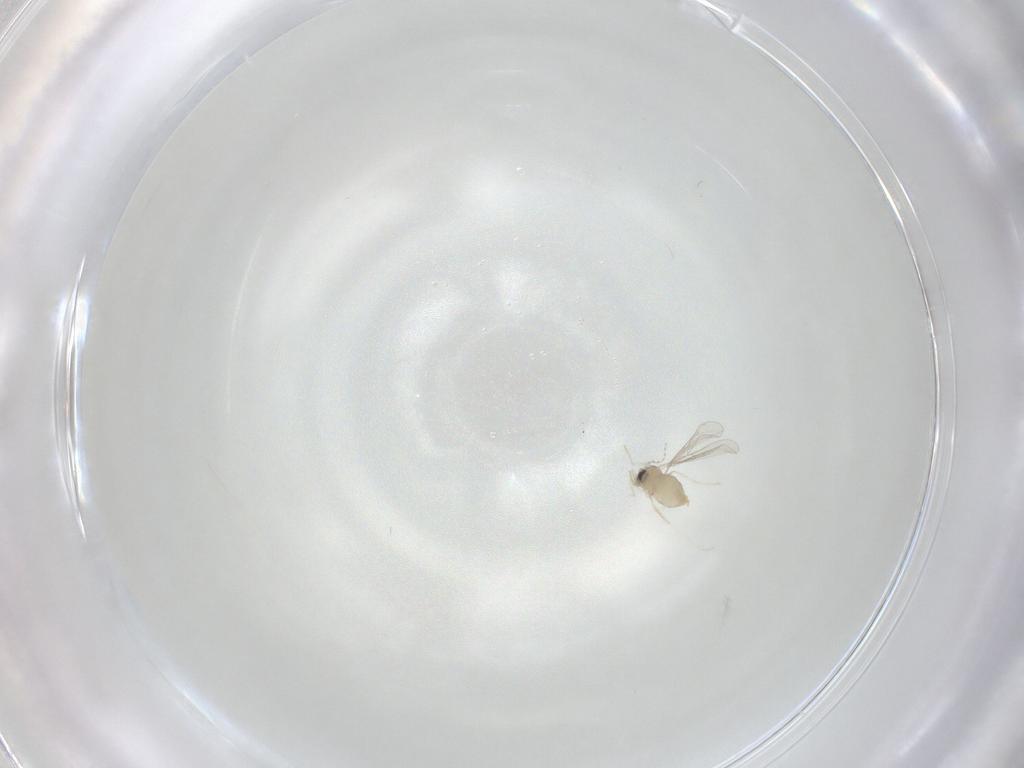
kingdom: Animalia
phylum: Arthropoda
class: Insecta
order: Diptera
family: Cecidomyiidae
